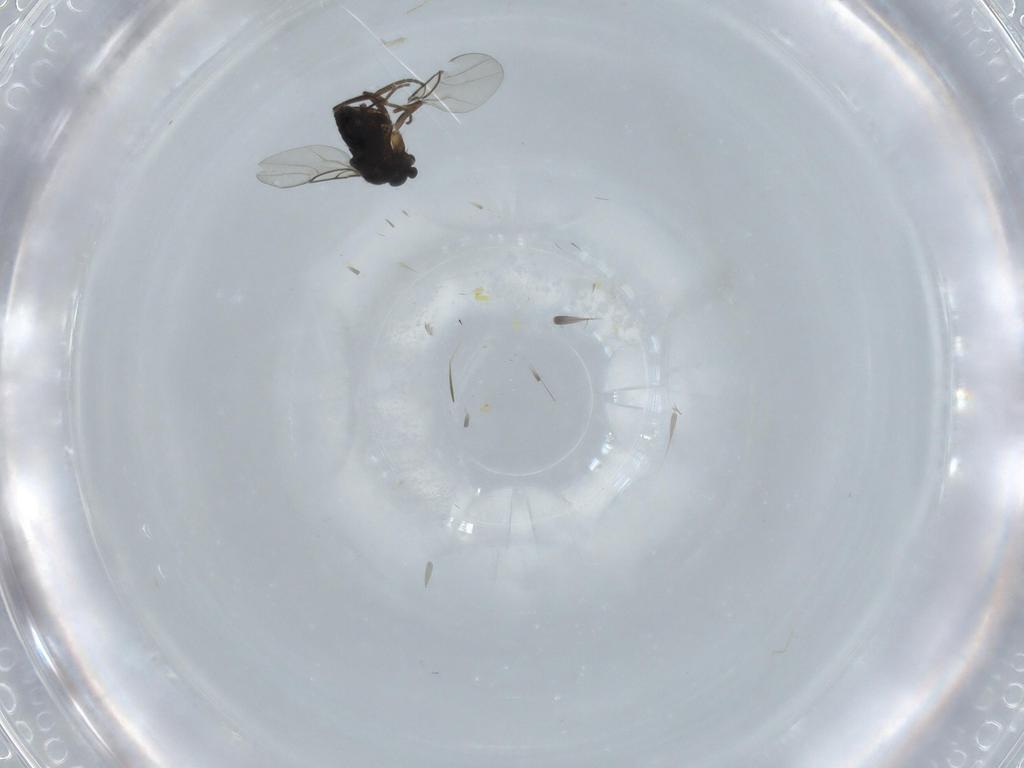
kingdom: Animalia
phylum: Arthropoda
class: Insecta
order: Diptera
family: Phoridae
